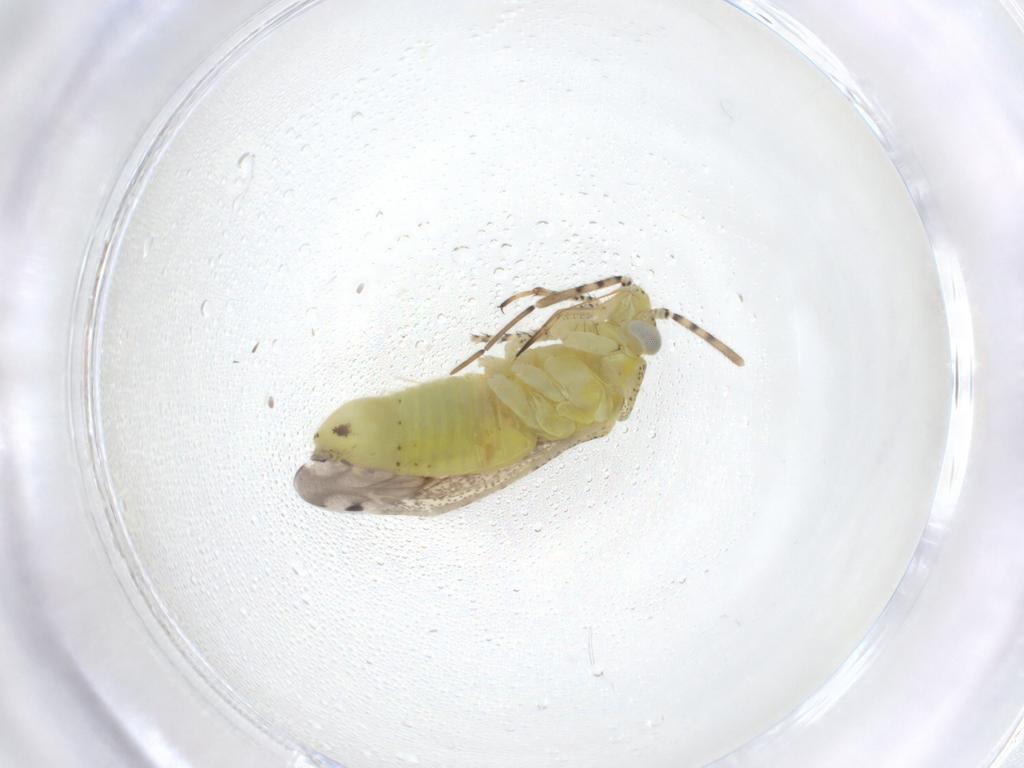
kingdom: Animalia
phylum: Arthropoda
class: Insecta
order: Hemiptera
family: Miridae
